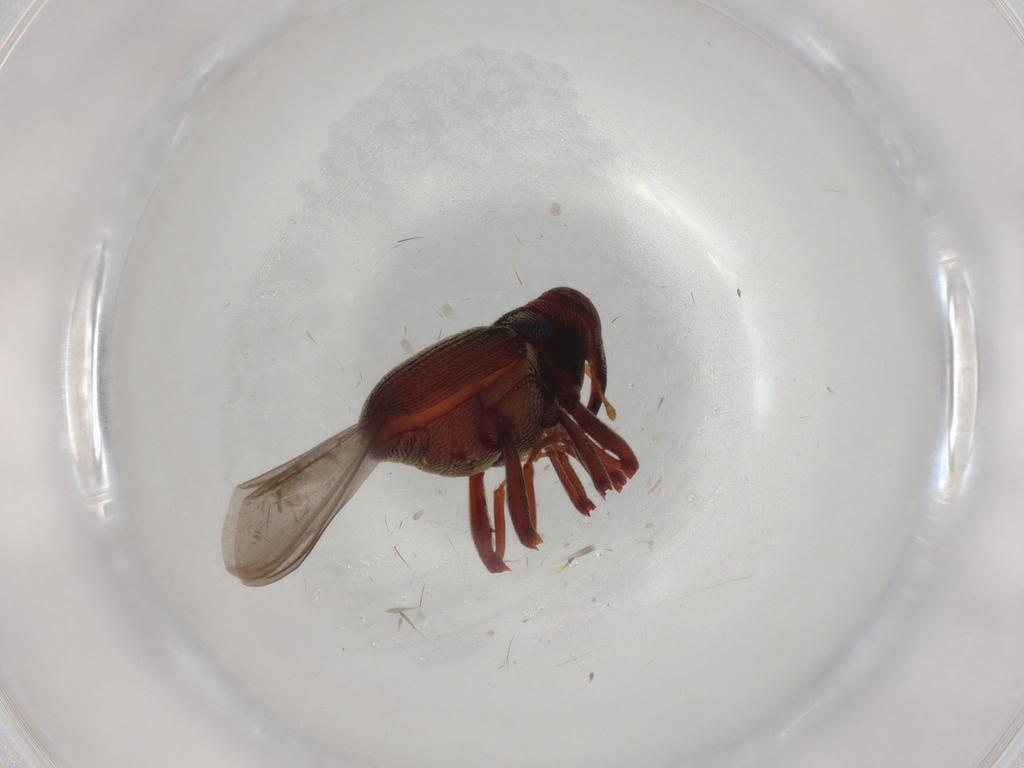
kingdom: Animalia
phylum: Arthropoda
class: Insecta
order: Coleoptera
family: Curculionidae
